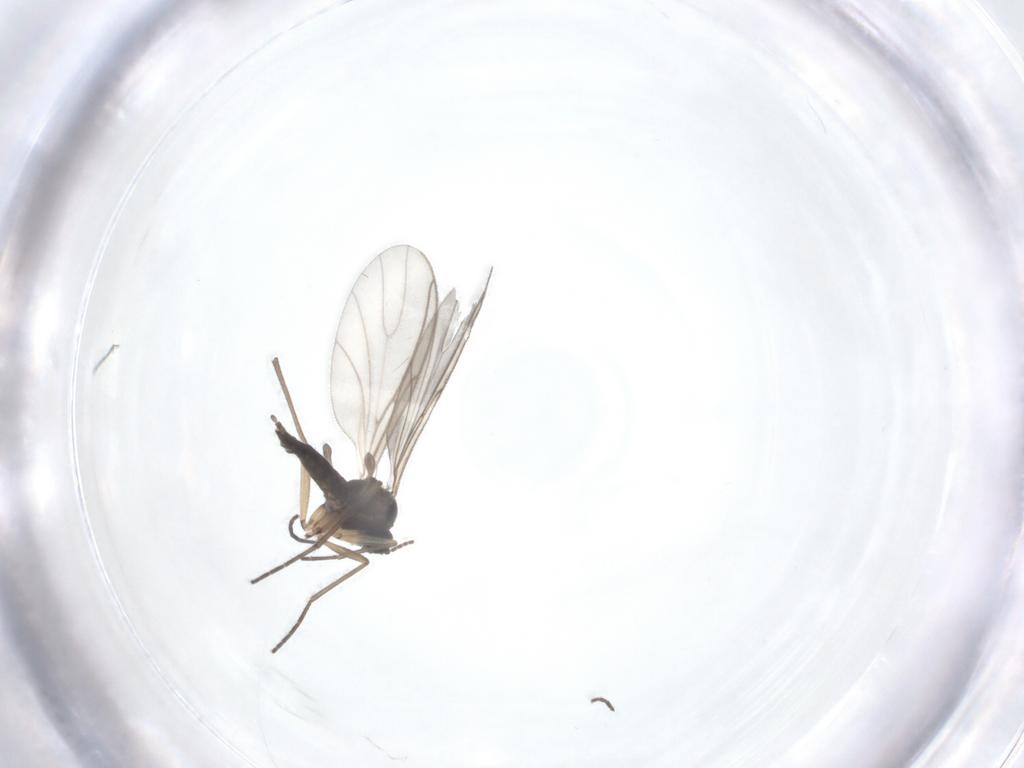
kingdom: Animalia
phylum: Arthropoda
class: Insecta
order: Diptera
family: Sciaridae
